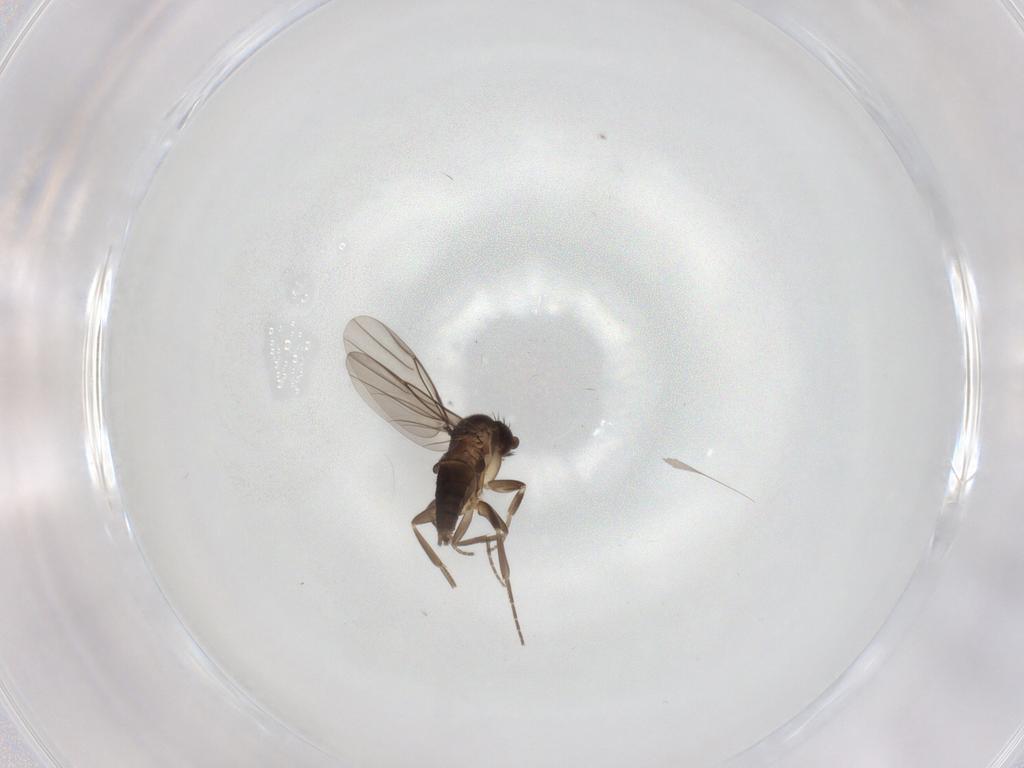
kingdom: Animalia
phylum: Arthropoda
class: Insecta
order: Diptera
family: Phoridae
